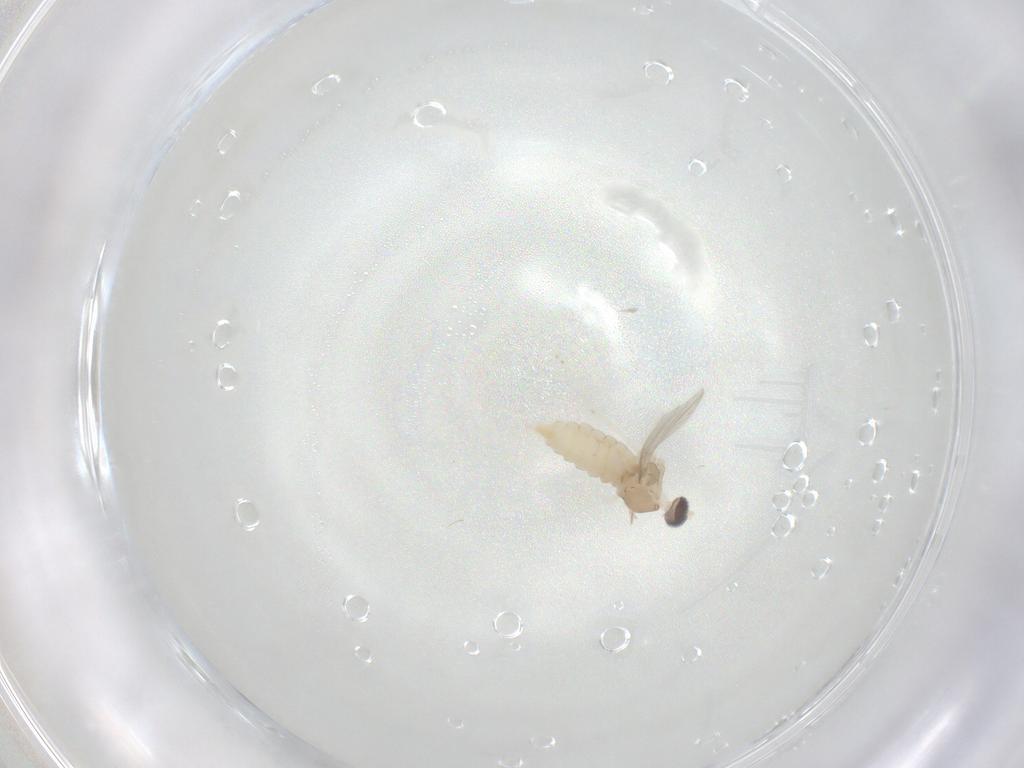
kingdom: Animalia
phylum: Arthropoda
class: Insecta
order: Diptera
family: Cecidomyiidae
